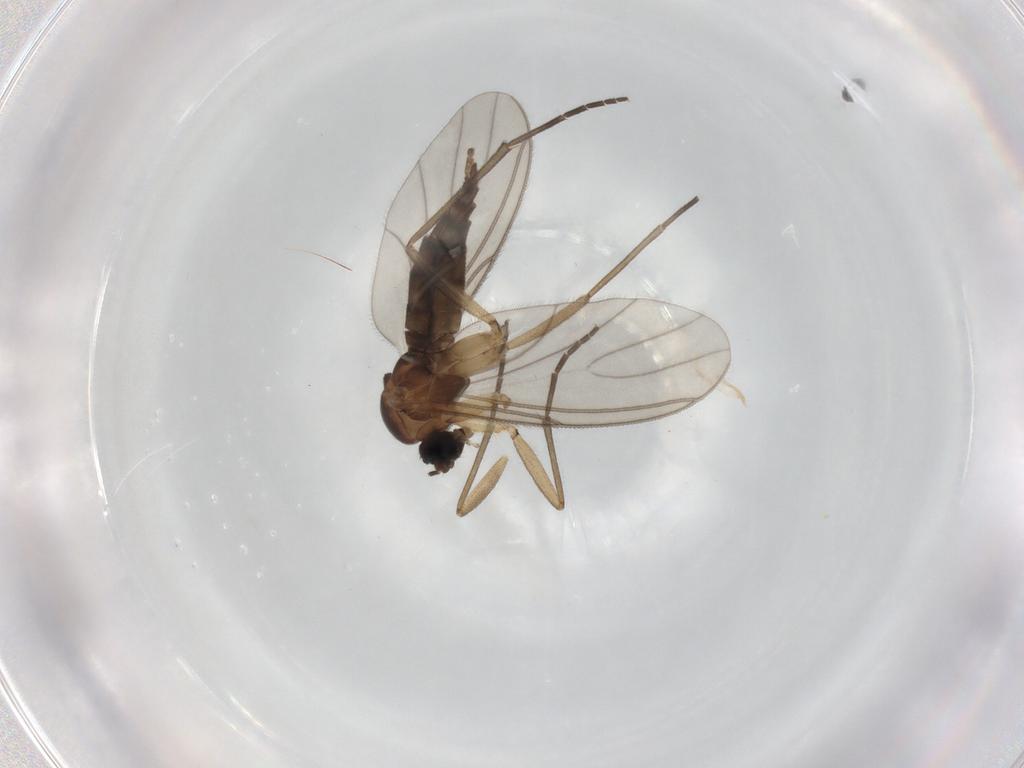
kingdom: Animalia
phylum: Arthropoda
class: Insecta
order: Diptera
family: Sciaridae
